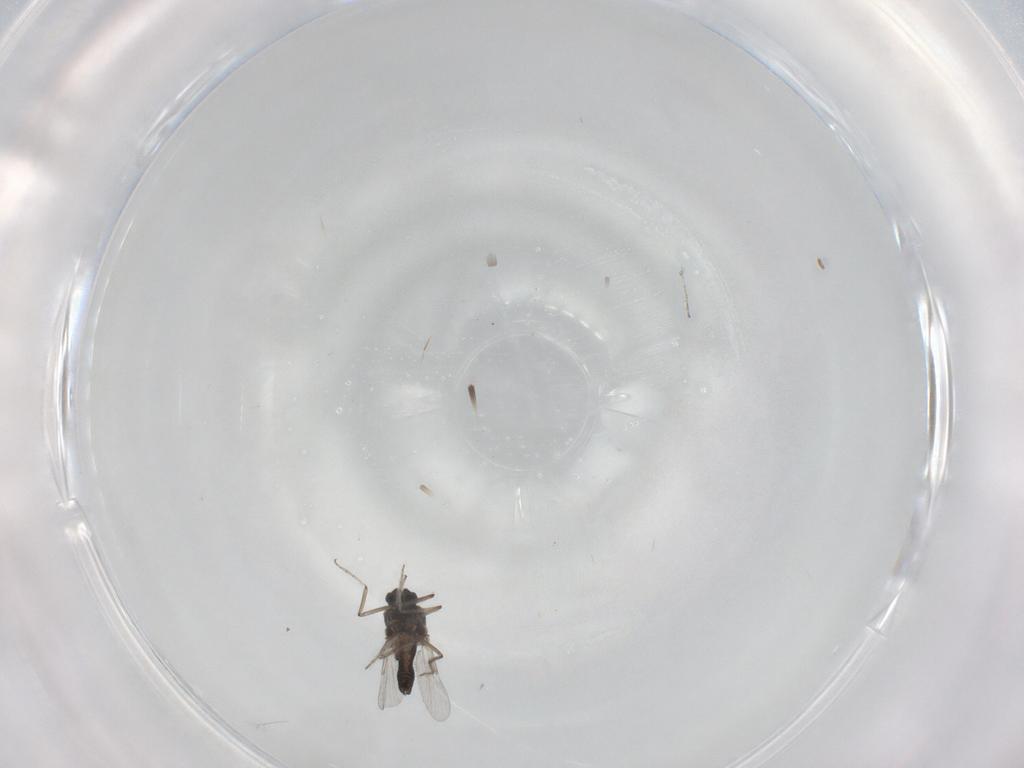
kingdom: Animalia
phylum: Arthropoda
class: Insecta
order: Diptera
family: Ceratopogonidae
